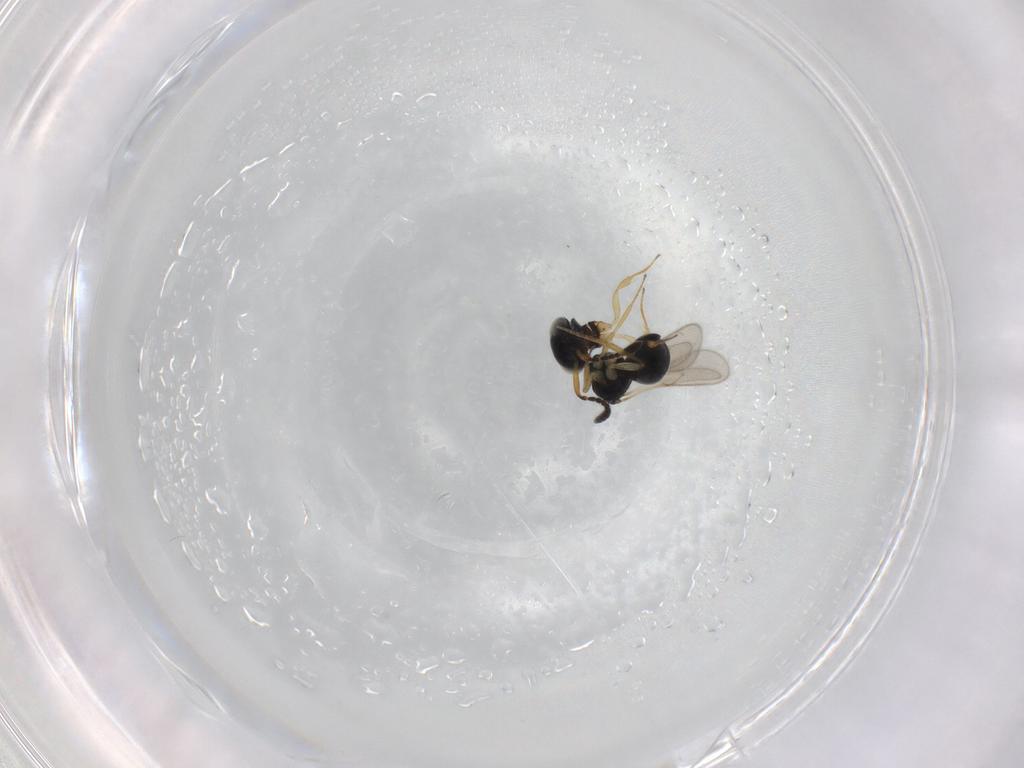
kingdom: Animalia
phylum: Arthropoda
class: Insecta
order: Hymenoptera
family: Scelionidae
